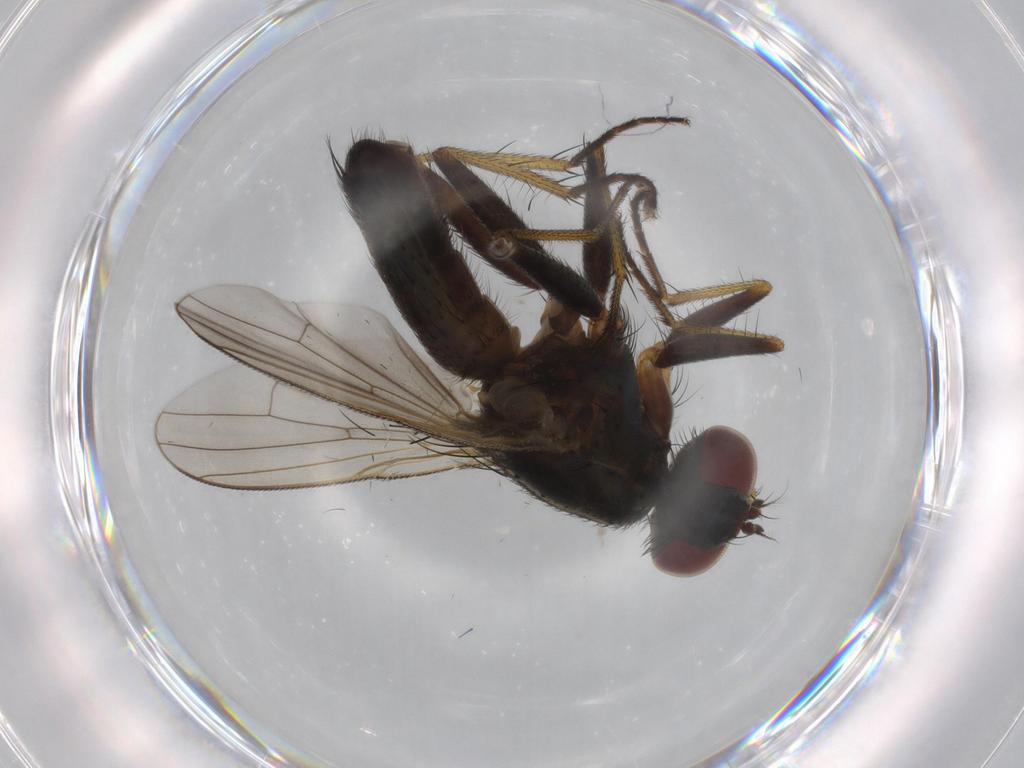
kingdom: Animalia
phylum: Arthropoda
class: Insecta
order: Diptera
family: Muscidae
